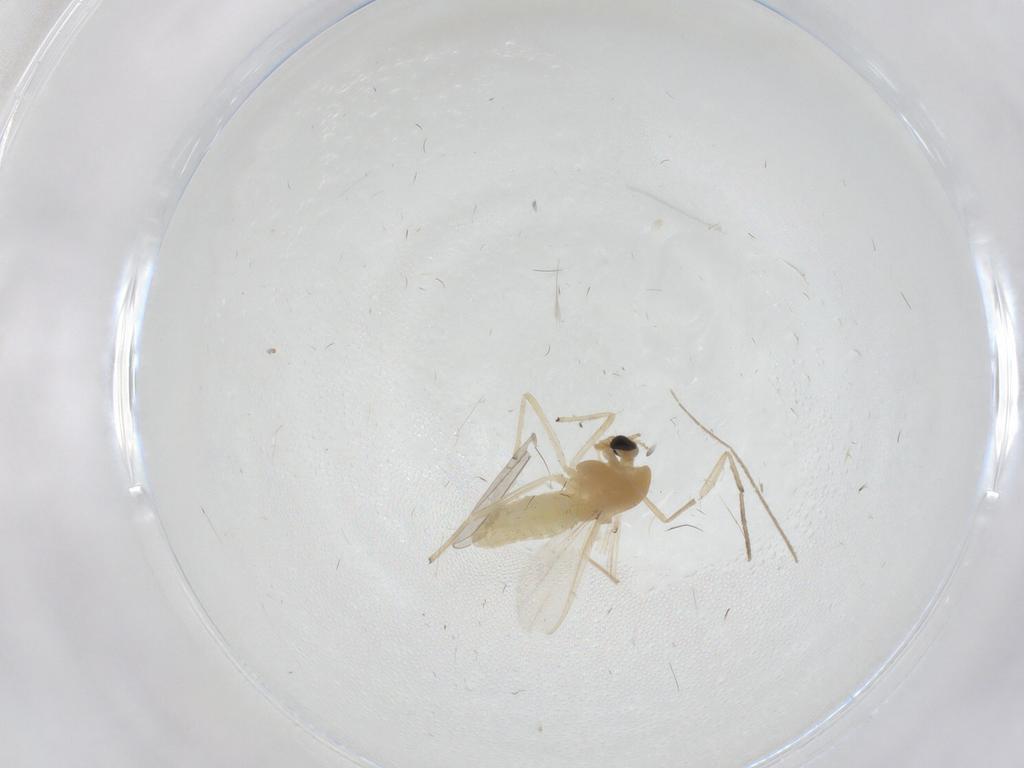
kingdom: Animalia
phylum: Arthropoda
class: Insecta
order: Diptera
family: Chironomidae
